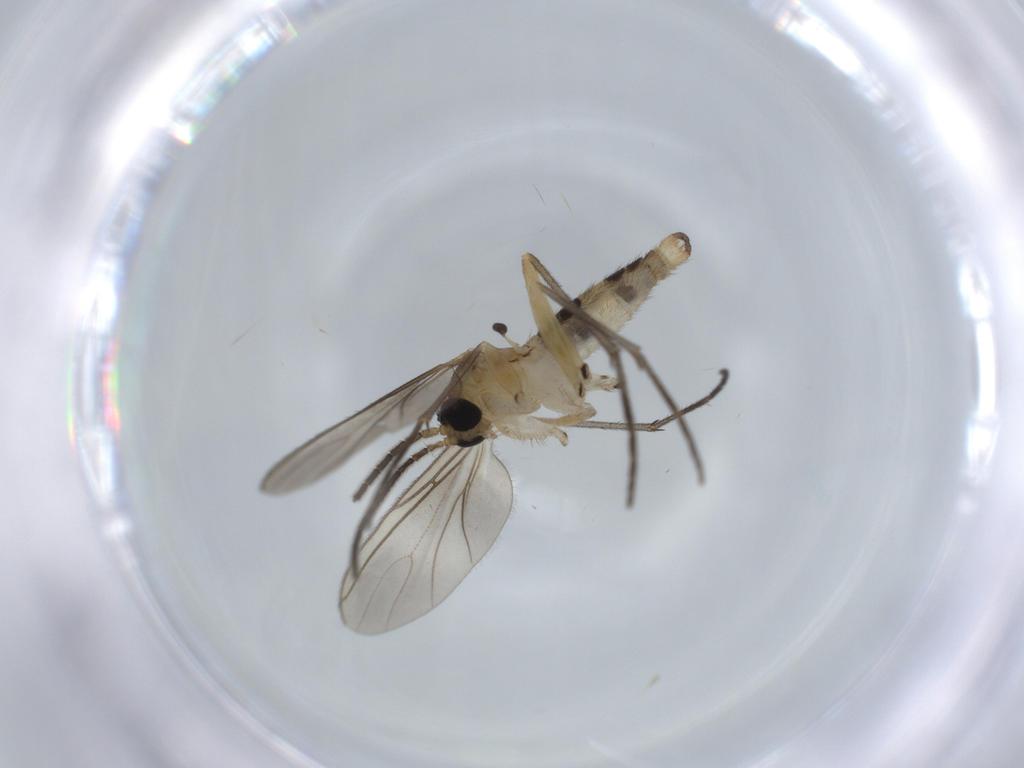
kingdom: Animalia
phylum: Arthropoda
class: Insecta
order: Diptera
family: Sciaridae
